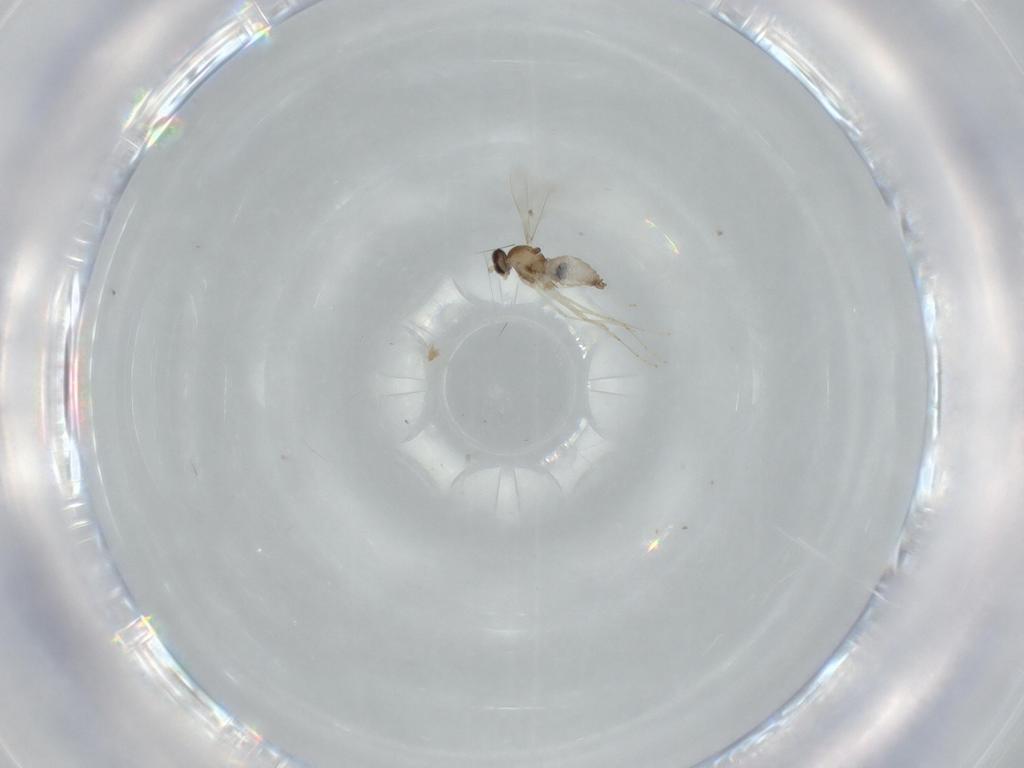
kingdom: Animalia
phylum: Arthropoda
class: Insecta
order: Diptera
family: Cecidomyiidae
